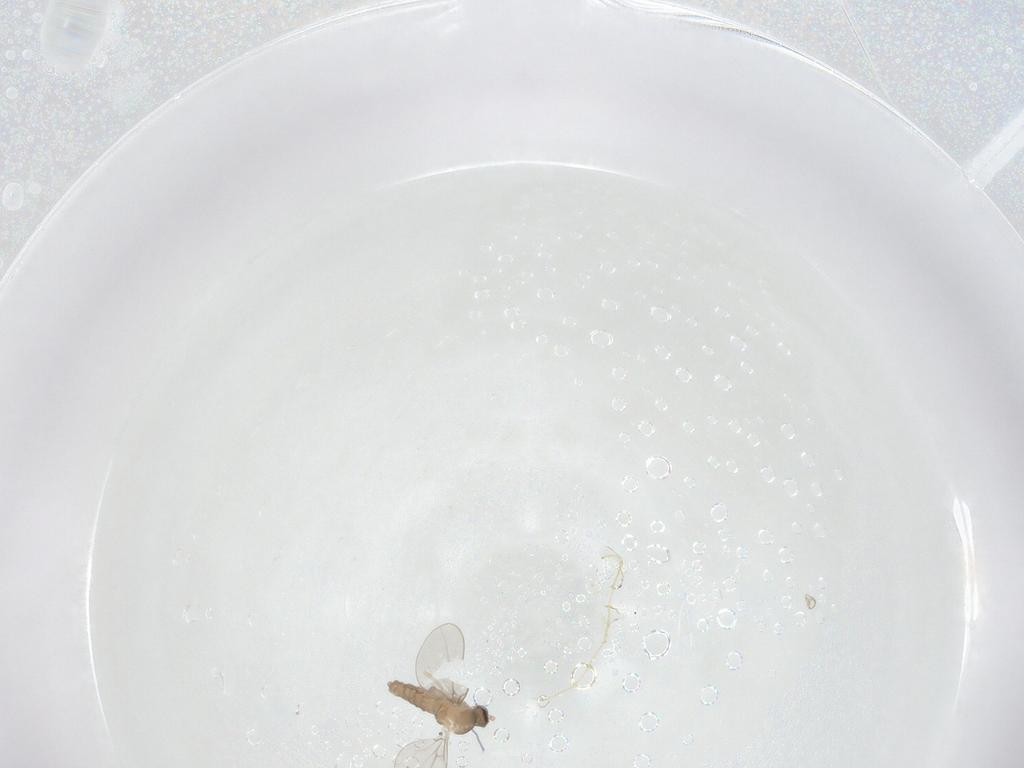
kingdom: Animalia
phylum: Arthropoda
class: Insecta
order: Diptera
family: Cecidomyiidae
